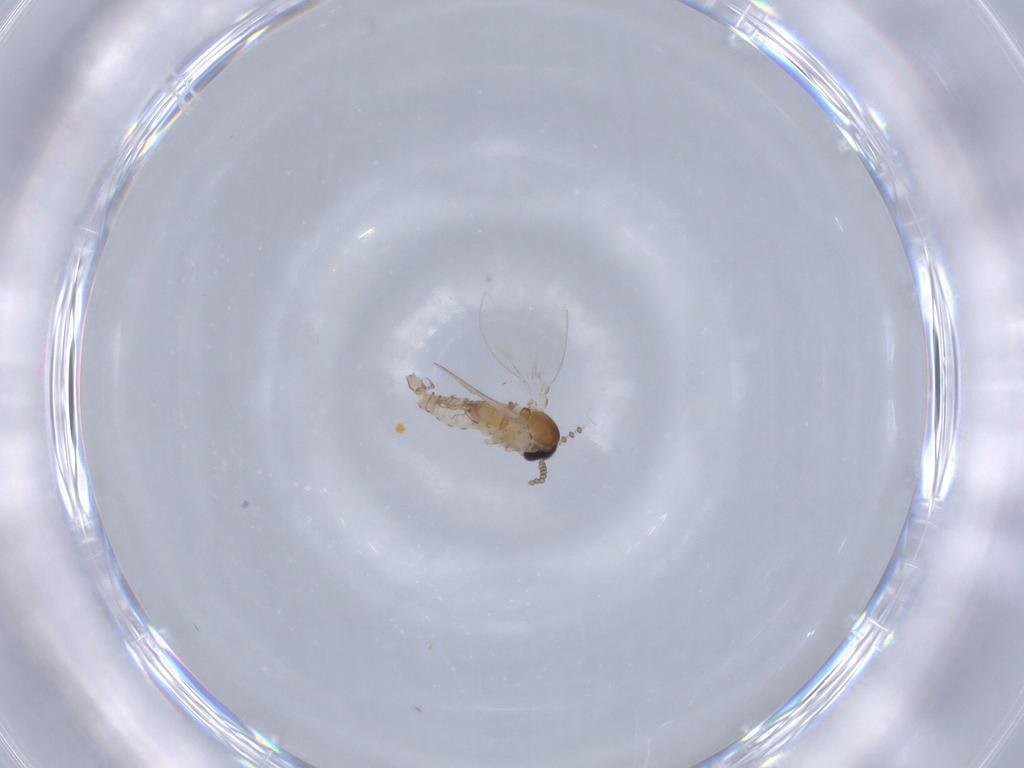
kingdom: Animalia
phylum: Arthropoda
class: Insecta
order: Diptera
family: Psychodidae
